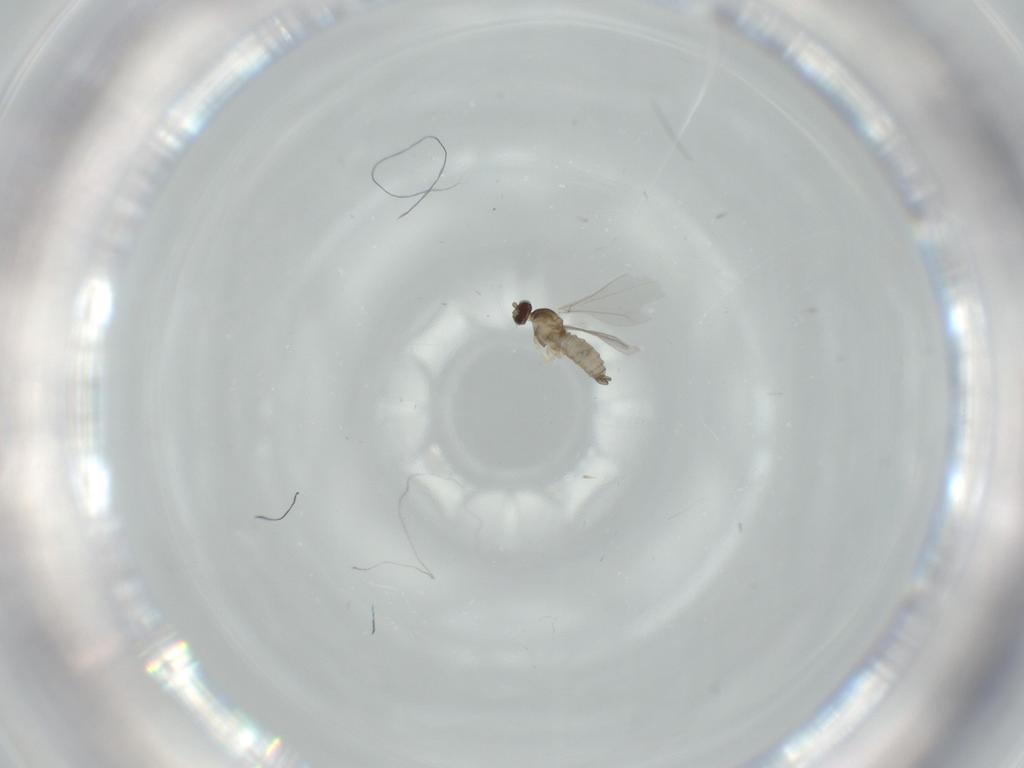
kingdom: Animalia
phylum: Arthropoda
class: Insecta
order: Diptera
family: Cecidomyiidae
